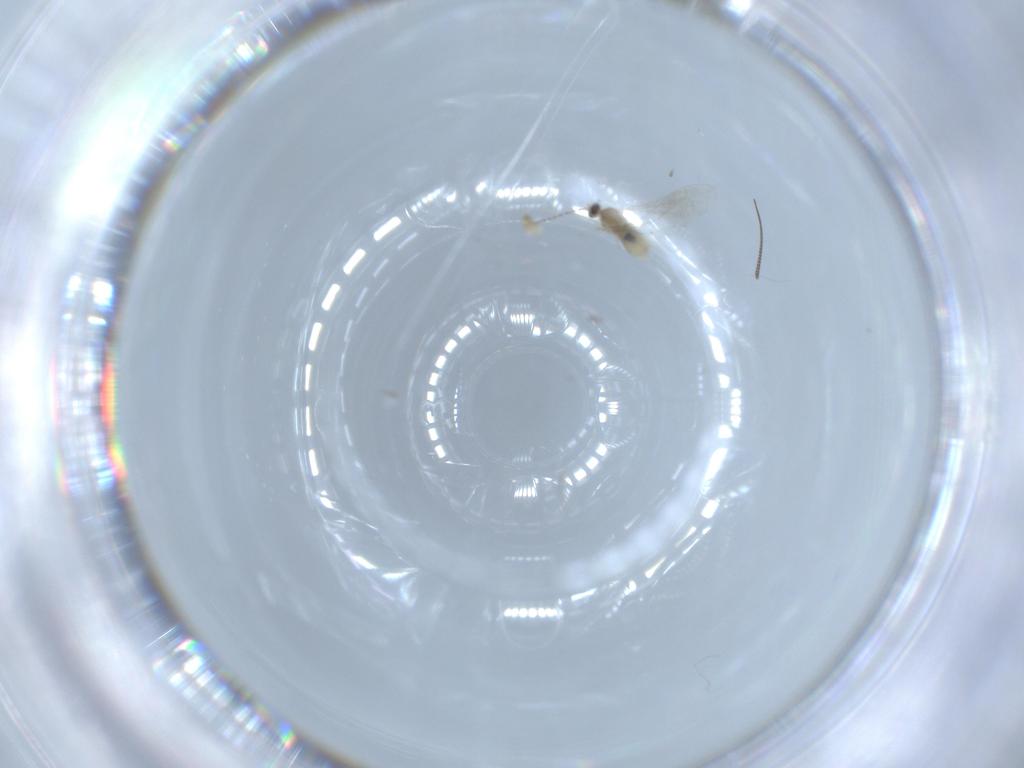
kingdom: Animalia
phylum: Arthropoda
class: Insecta
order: Diptera
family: Cecidomyiidae
